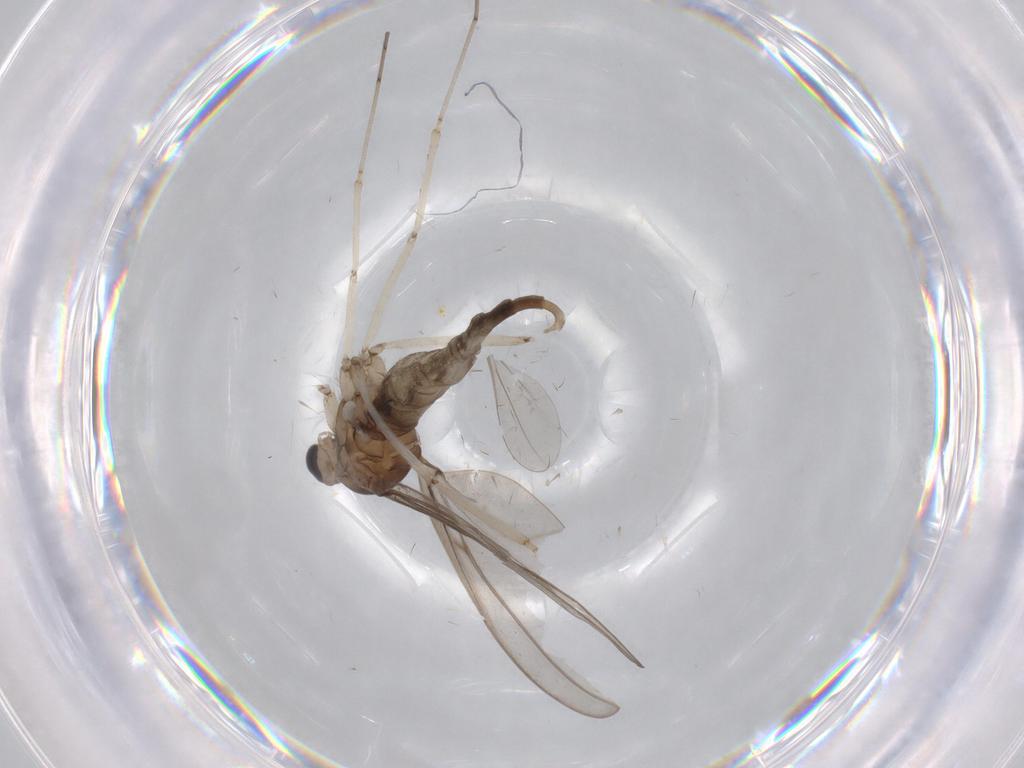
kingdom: Animalia
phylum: Arthropoda
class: Insecta
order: Diptera
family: Cecidomyiidae
